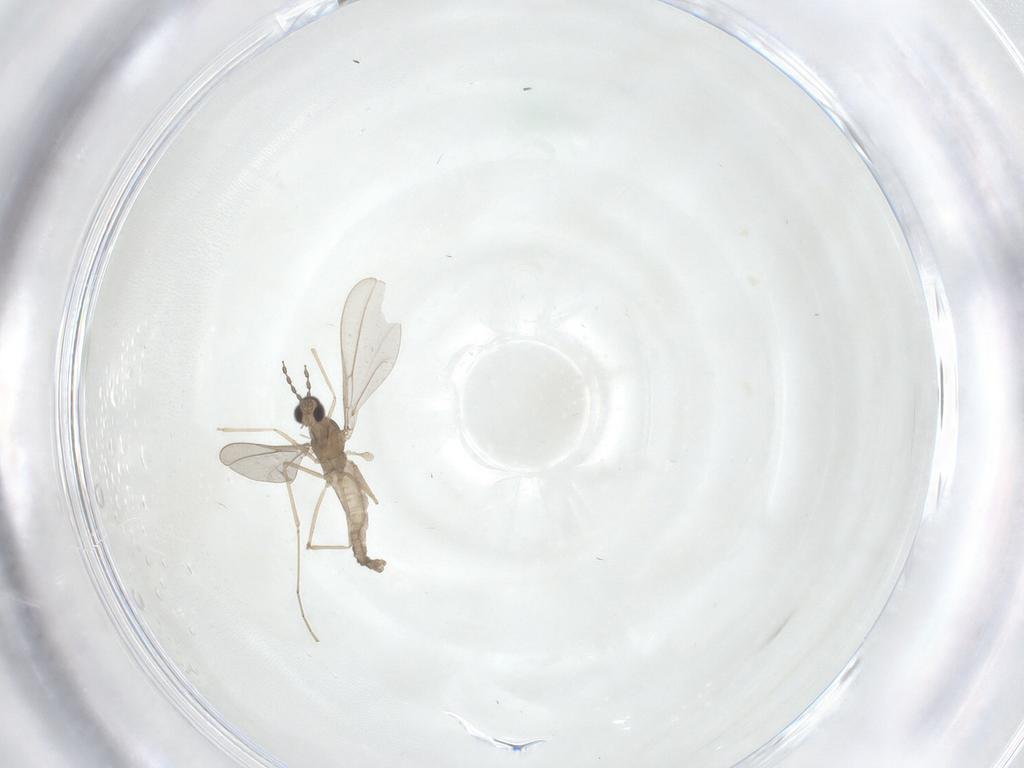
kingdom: Animalia
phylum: Arthropoda
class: Insecta
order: Diptera
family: Cecidomyiidae
